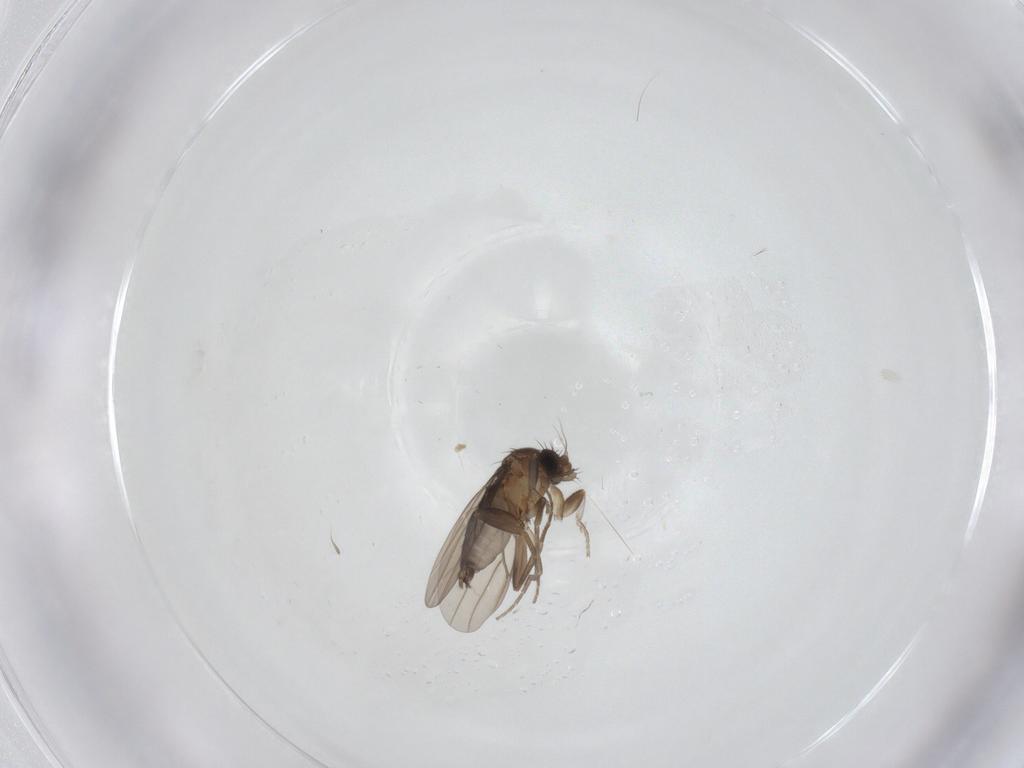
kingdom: Animalia
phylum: Arthropoda
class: Insecta
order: Diptera
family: Phoridae
